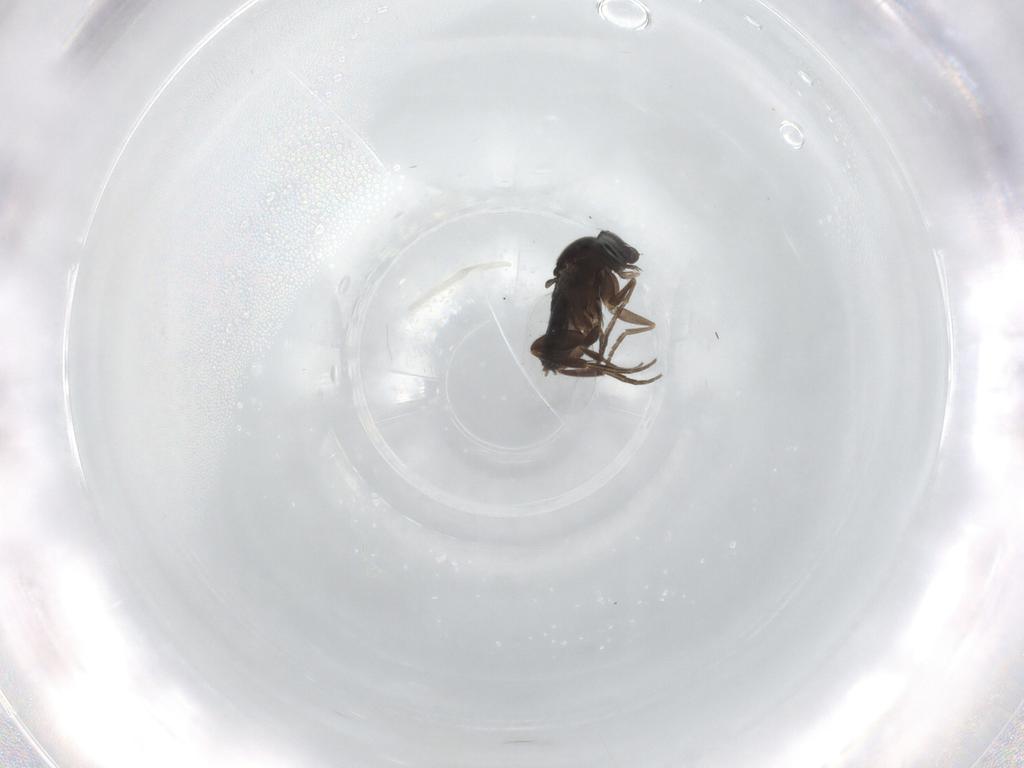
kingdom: Animalia
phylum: Arthropoda
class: Insecta
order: Diptera
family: Phoridae
